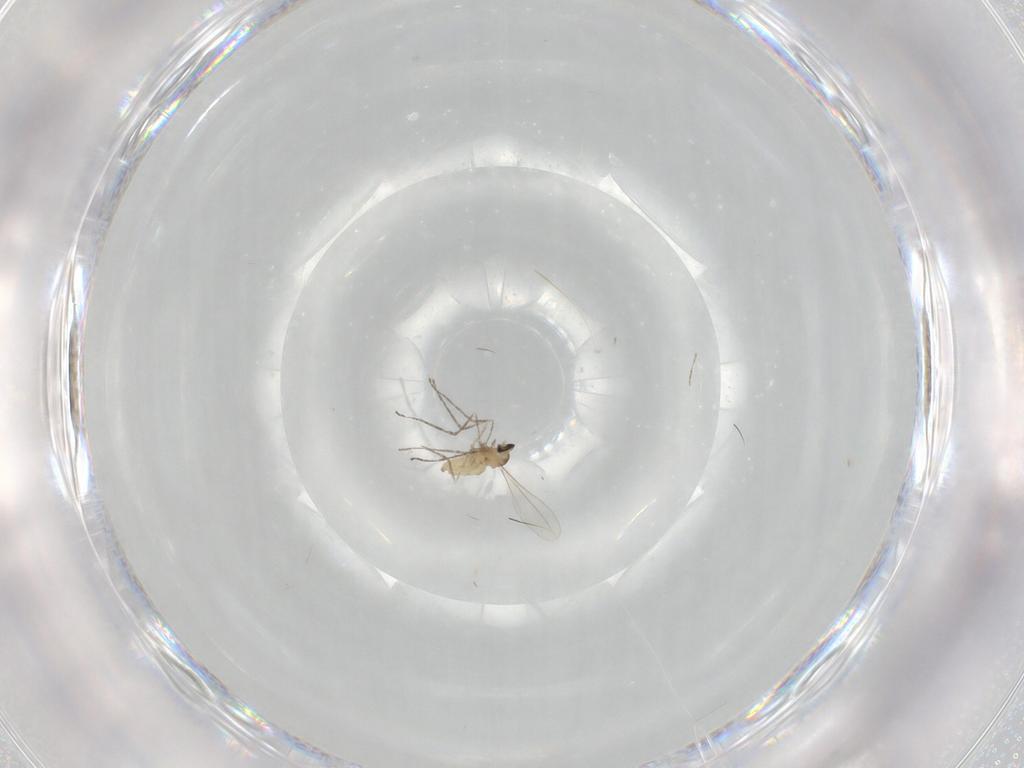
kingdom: Animalia
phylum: Arthropoda
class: Insecta
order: Diptera
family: Cecidomyiidae
